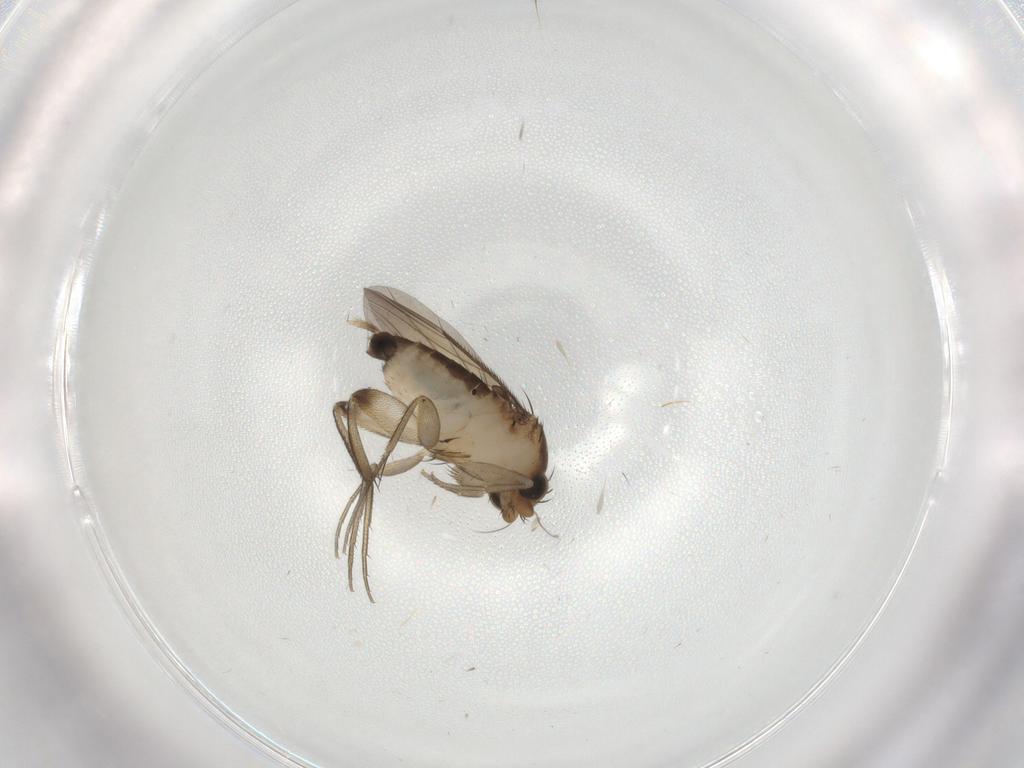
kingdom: Animalia
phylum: Arthropoda
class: Insecta
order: Diptera
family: Phoridae
